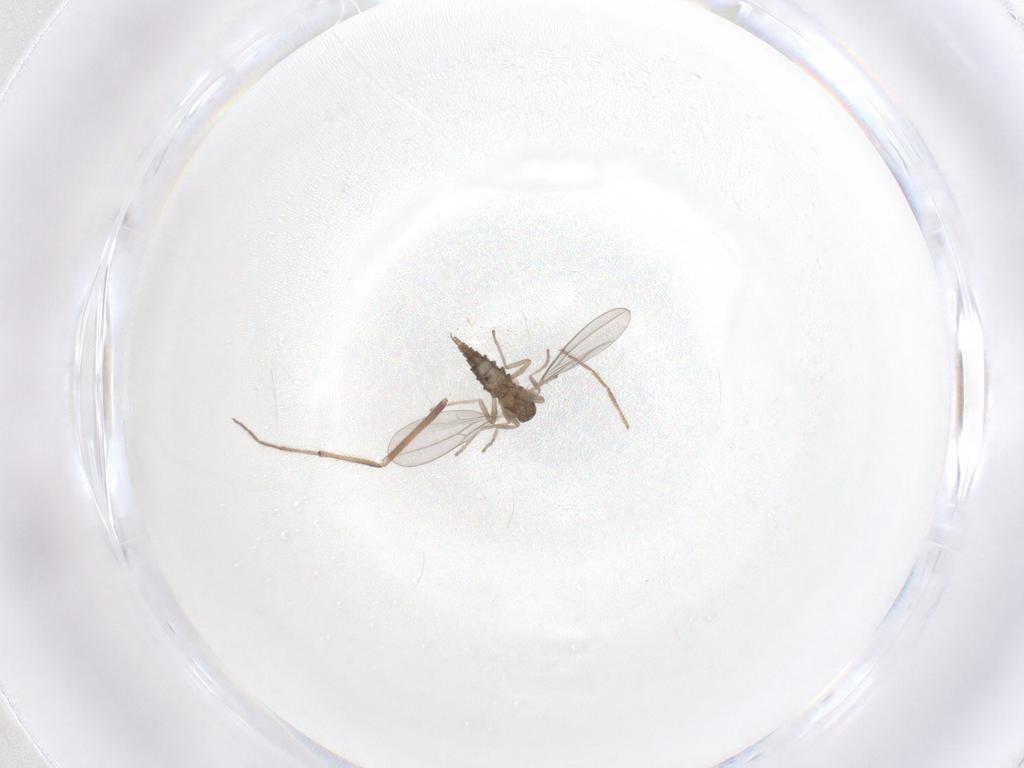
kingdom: Animalia
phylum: Arthropoda
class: Insecta
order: Diptera
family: Cecidomyiidae
